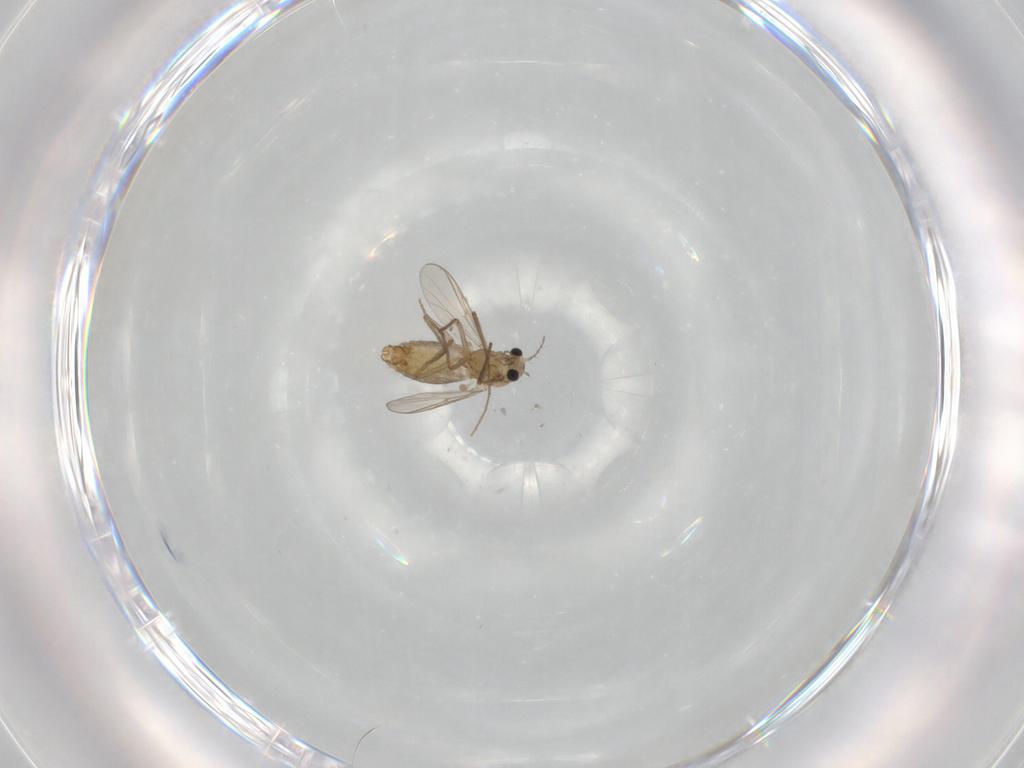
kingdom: Animalia
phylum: Arthropoda
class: Insecta
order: Diptera
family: Chironomidae
